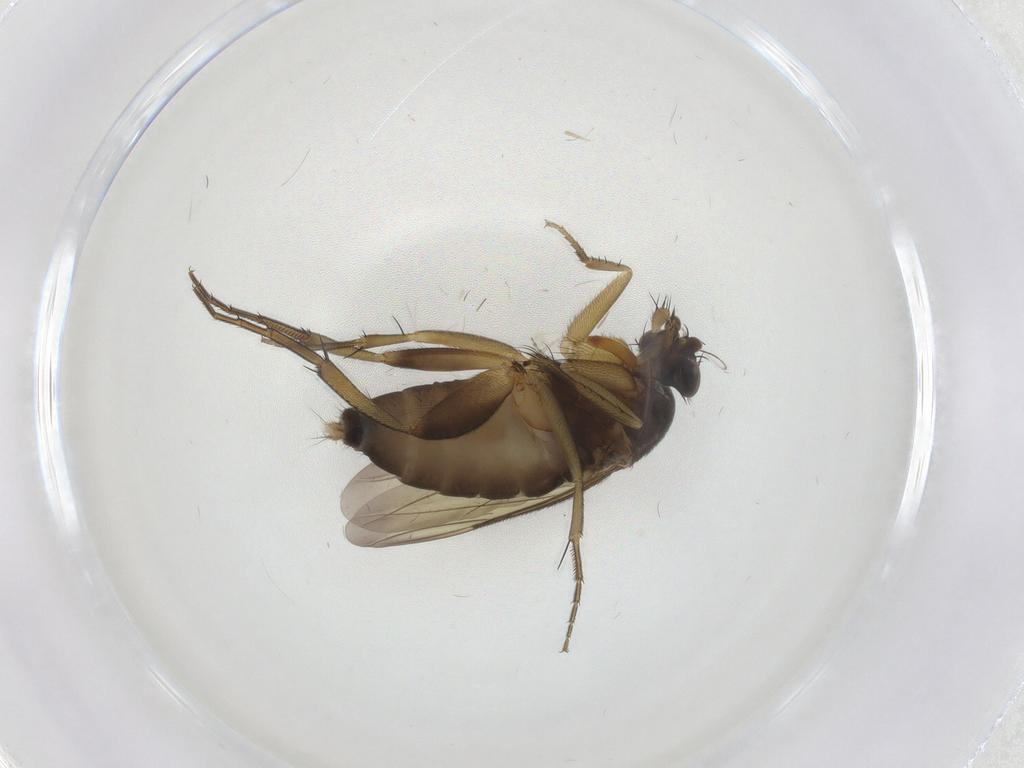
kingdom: Animalia
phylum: Arthropoda
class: Insecta
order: Diptera
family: Phoridae
